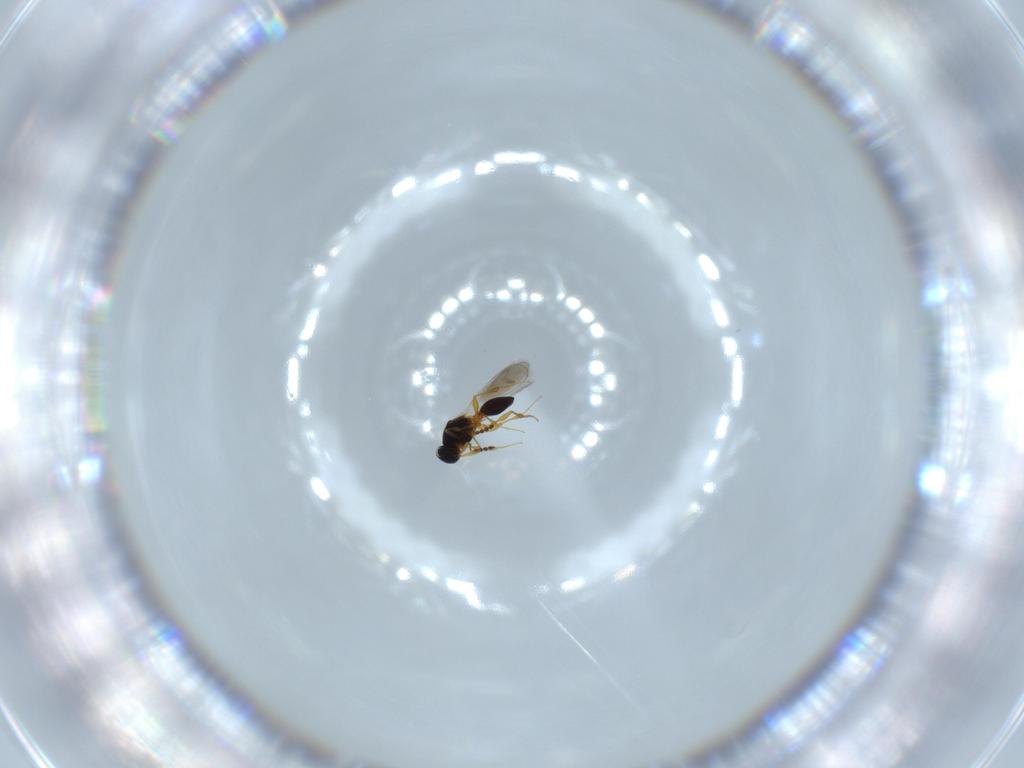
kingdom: Animalia
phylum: Arthropoda
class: Insecta
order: Hymenoptera
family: Platygastridae
